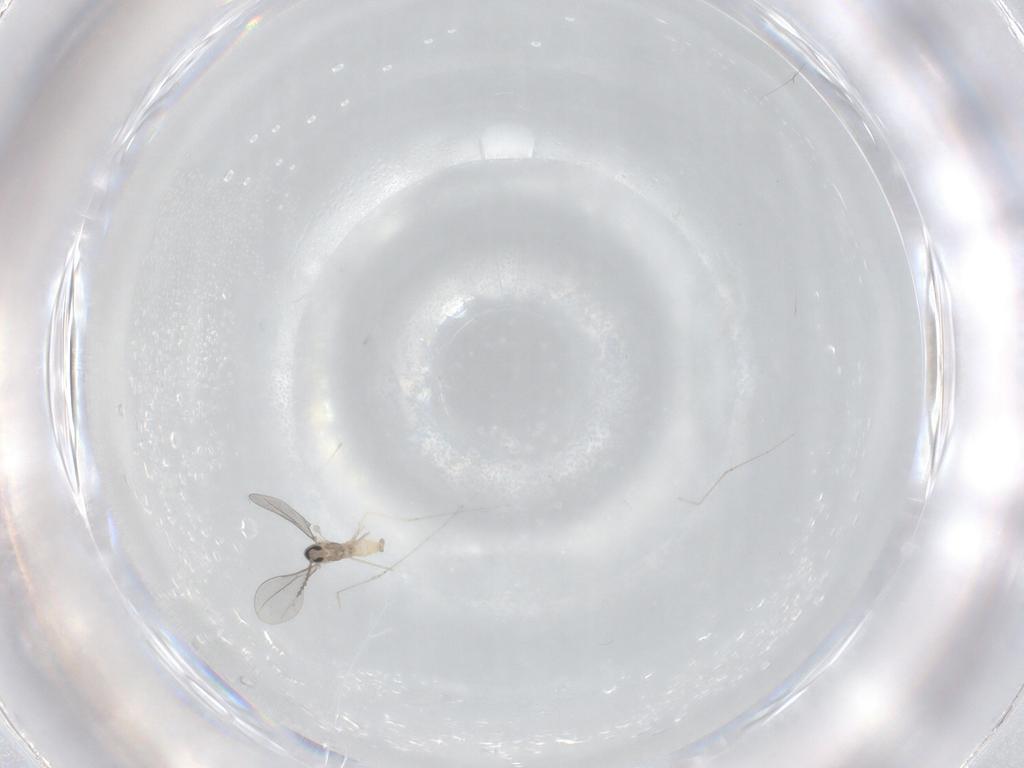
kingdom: Animalia
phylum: Arthropoda
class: Insecta
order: Diptera
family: Cecidomyiidae
